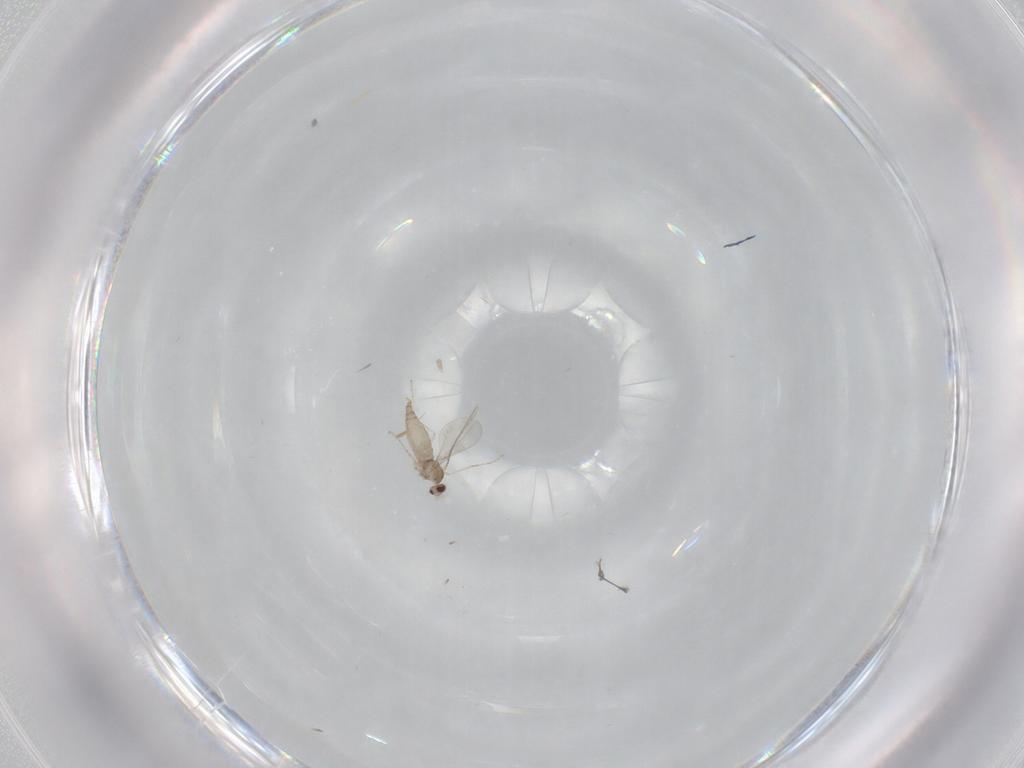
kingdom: Animalia
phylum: Arthropoda
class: Insecta
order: Diptera
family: Cecidomyiidae
